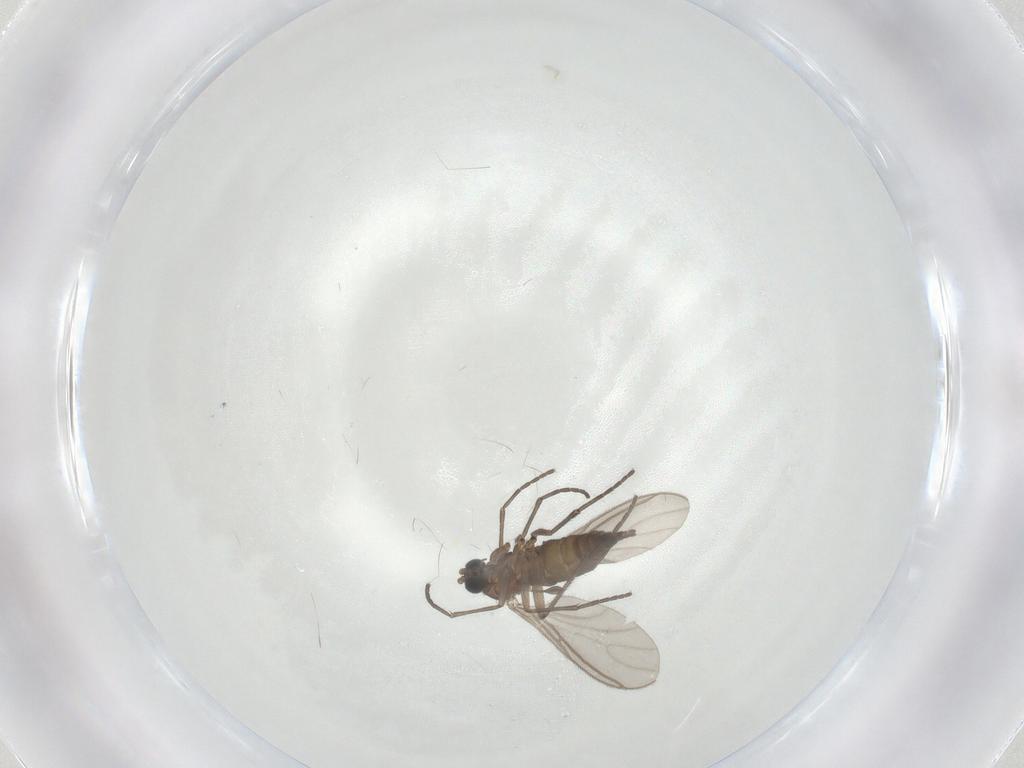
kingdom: Animalia
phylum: Arthropoda
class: Insecta
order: Diptera
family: Sciaridae
